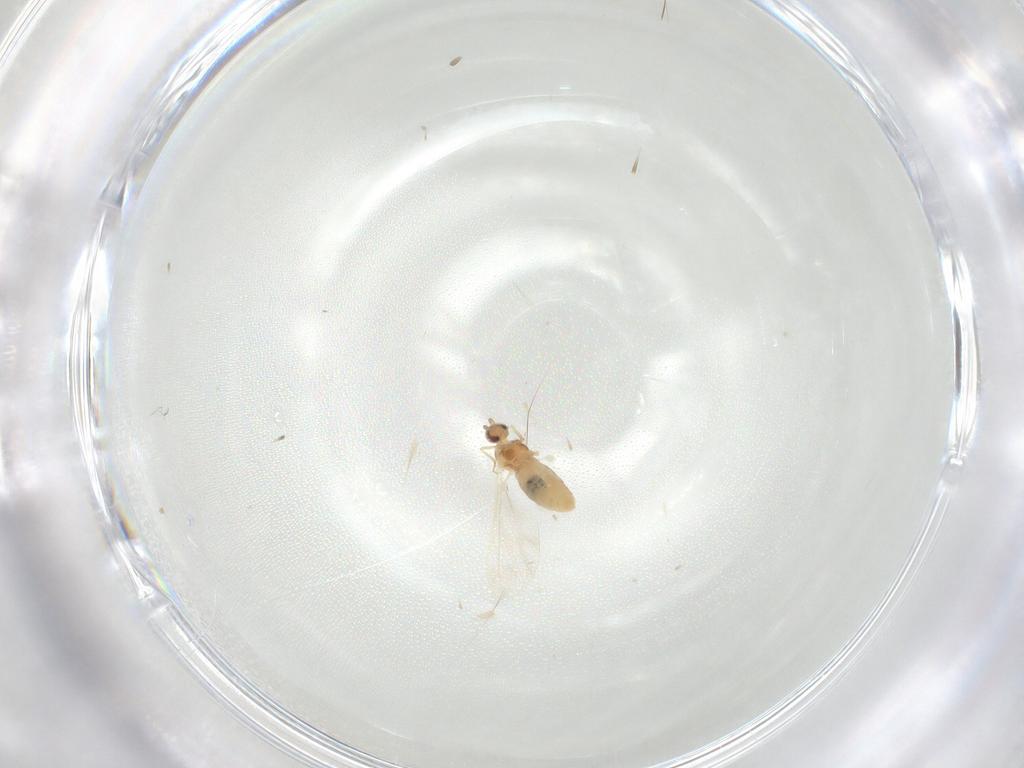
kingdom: Animalia
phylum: Arthropoda
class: Insecta
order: Diptera
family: Cecidomyiidae
